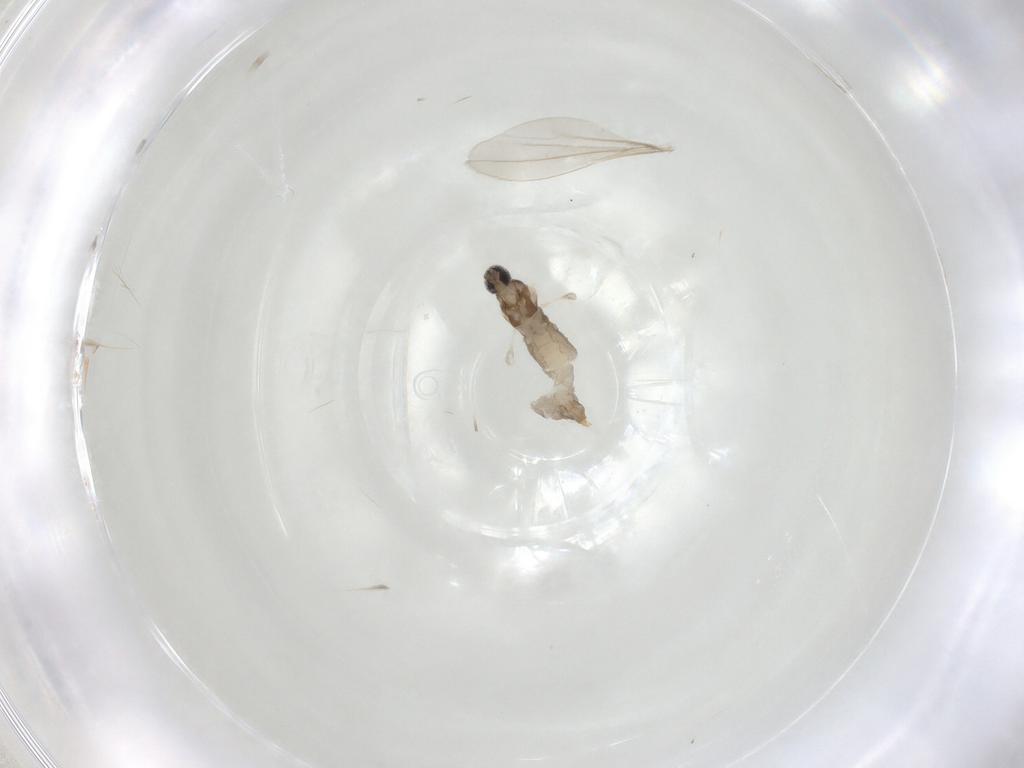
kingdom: Animalia
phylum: Arthropoda
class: Insecta
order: Diptera
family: Cecidomyiidae
